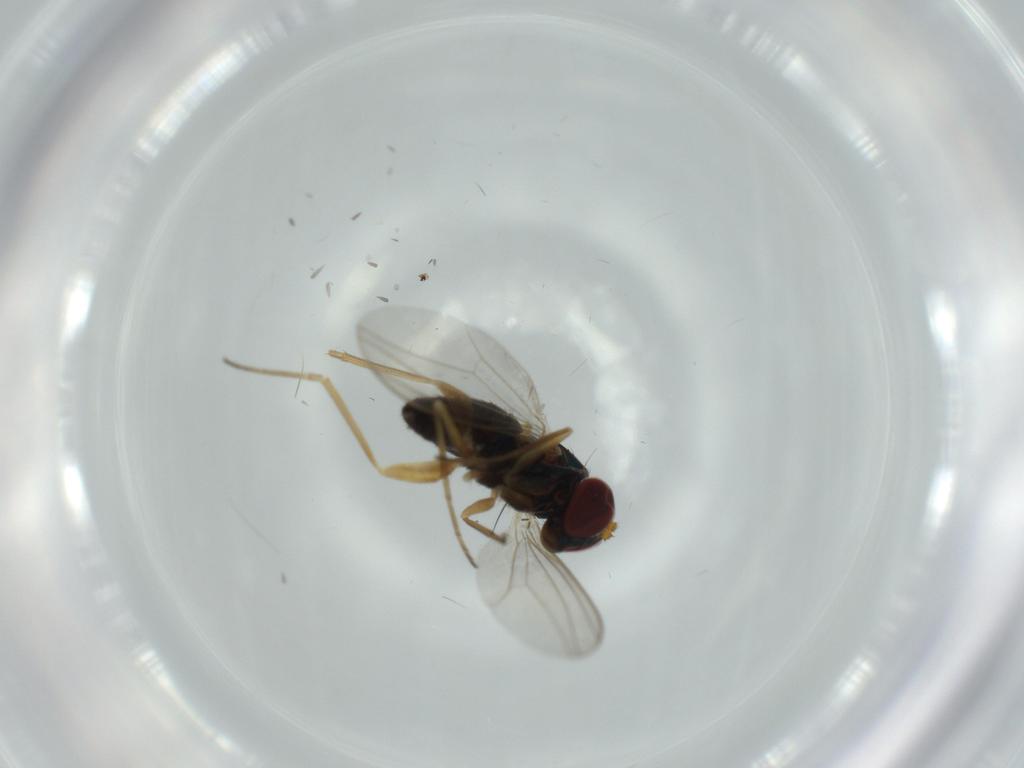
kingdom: Animalia
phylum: Arthropoda
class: Insecta
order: Diptera
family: Dolichopodidae
